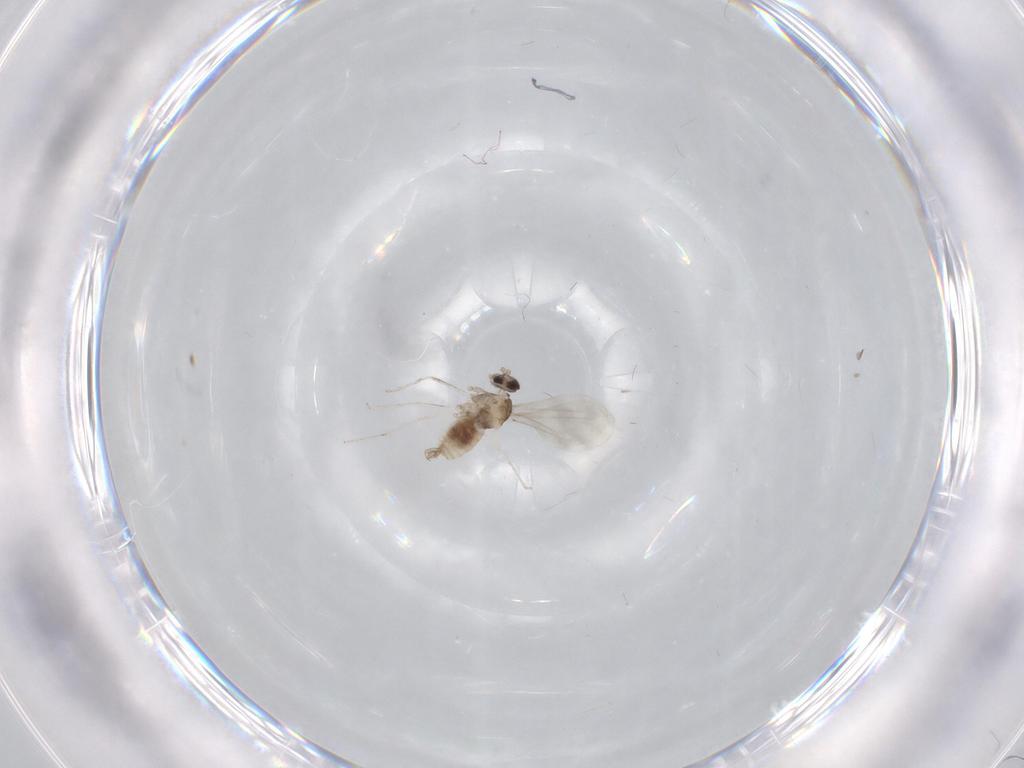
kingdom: Animalia
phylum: Arthropoda
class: Insecta
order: Diptera
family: Cecidomyiidae
